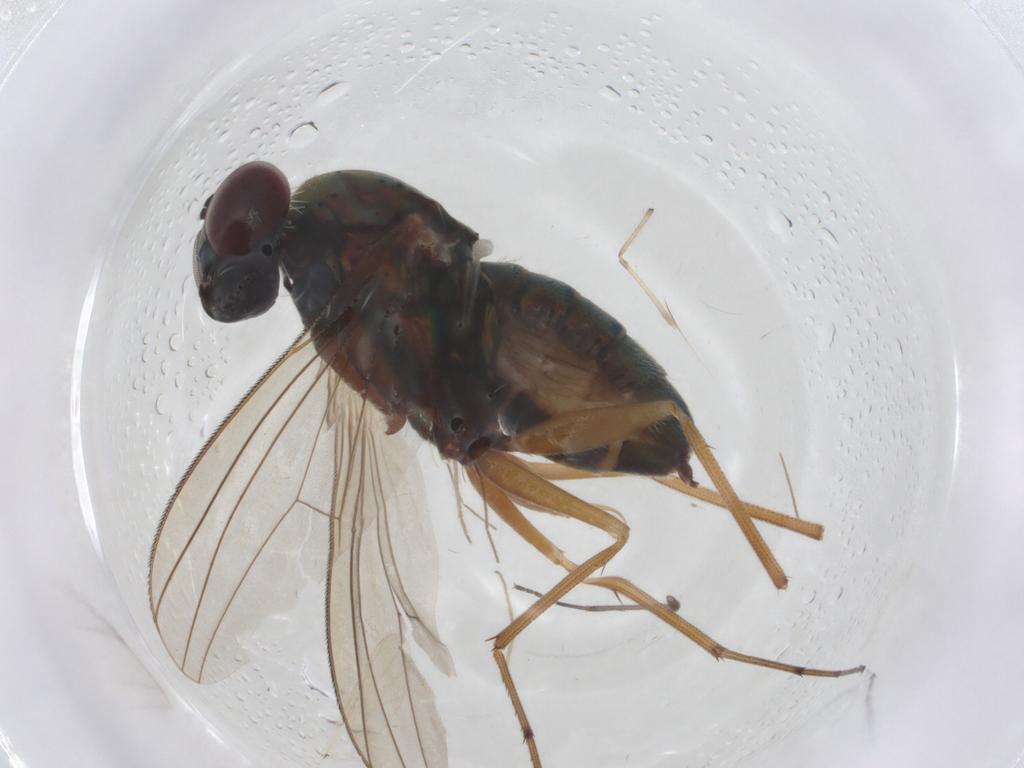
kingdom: Animalia
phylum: Arthropoda
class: Insecta
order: Diptera
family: Chironomidae
